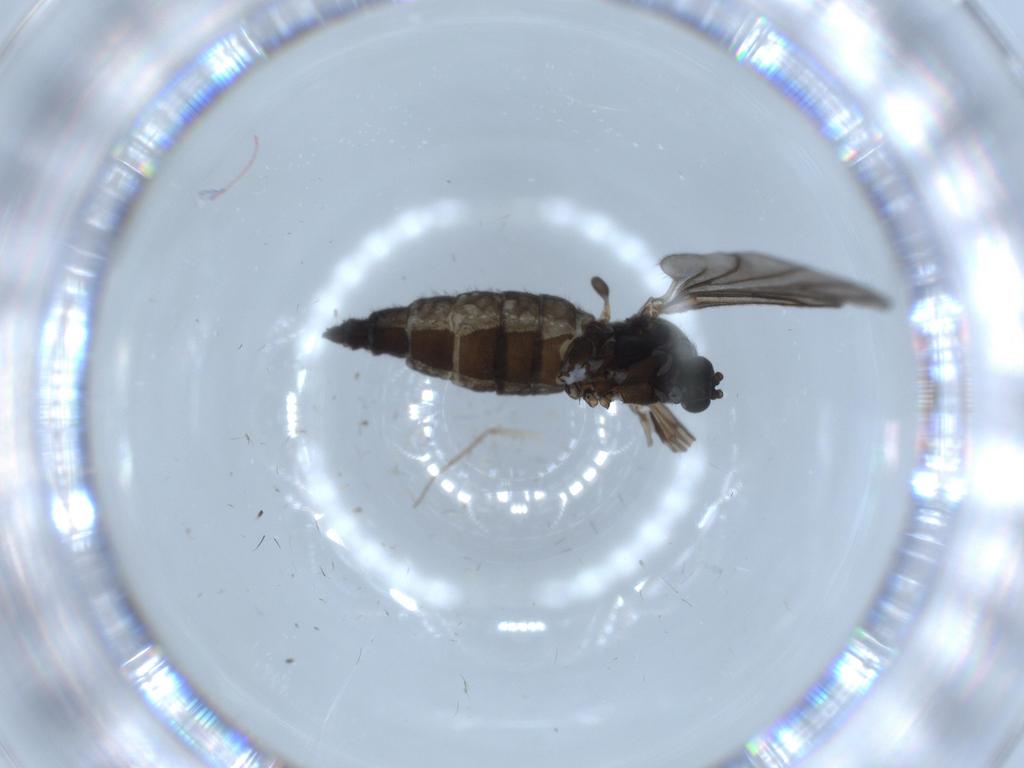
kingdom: Animalia
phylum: Arthropoda
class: Insecta
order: Diptera
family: Sciaridae
